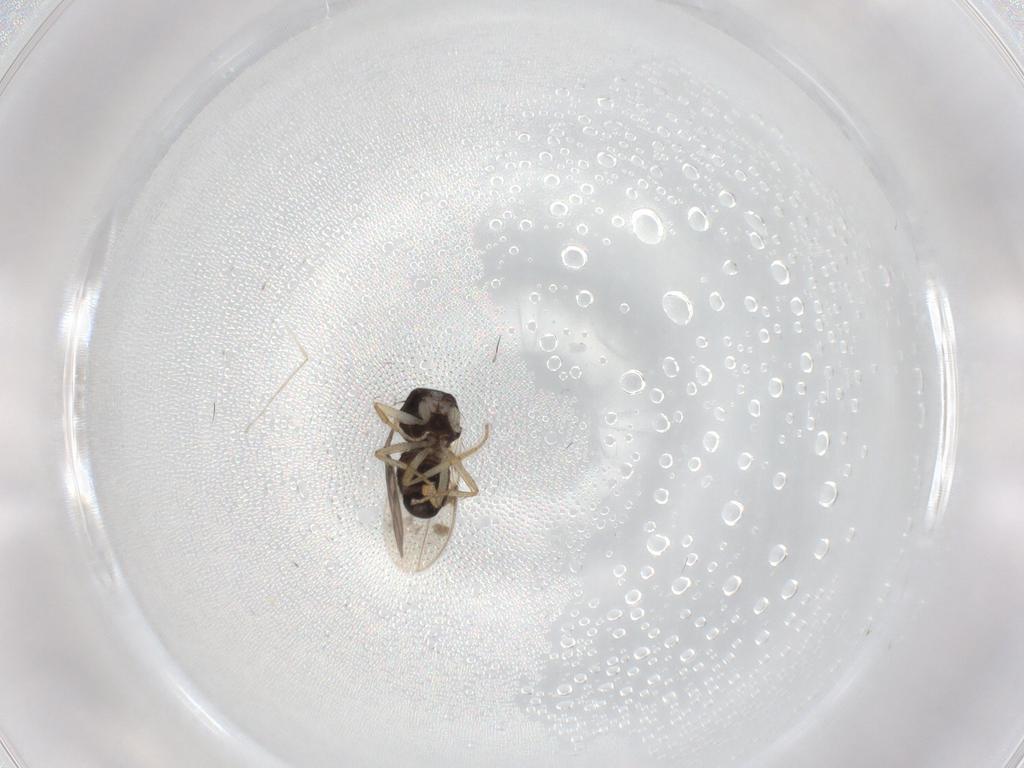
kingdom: Animalia
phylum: Arthropoda
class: Insecta
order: Diptera
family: Sphaeroceridae
